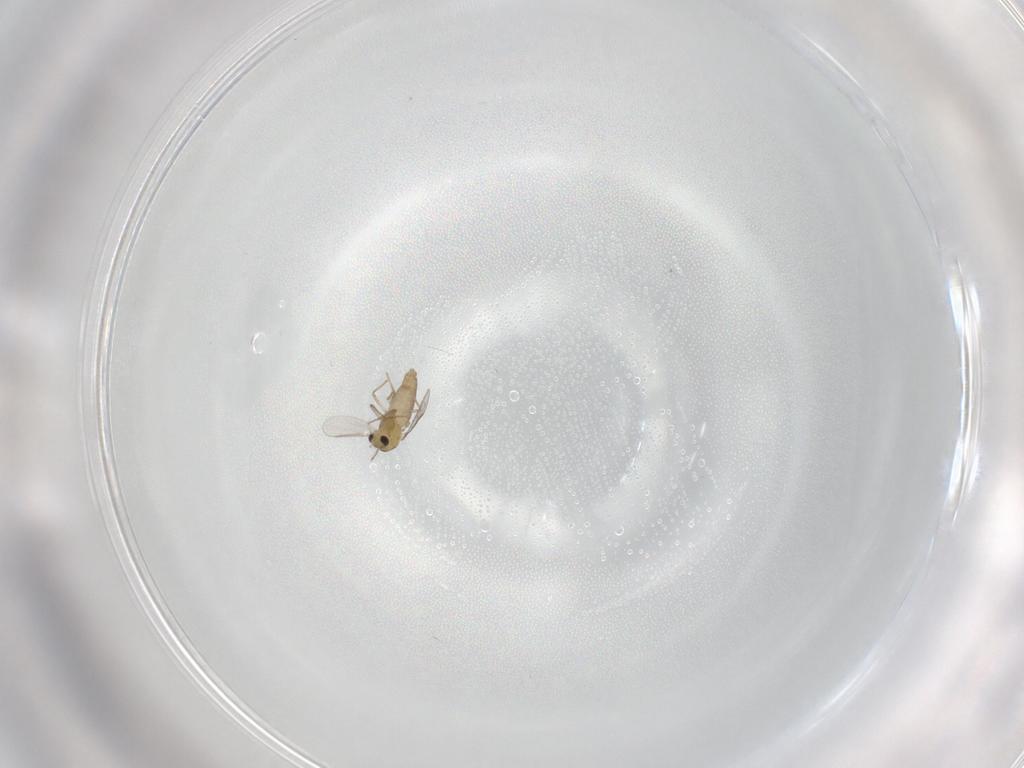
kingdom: Animalia
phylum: Arthropoda
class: Insecta
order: Diptera
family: Chironomidae
